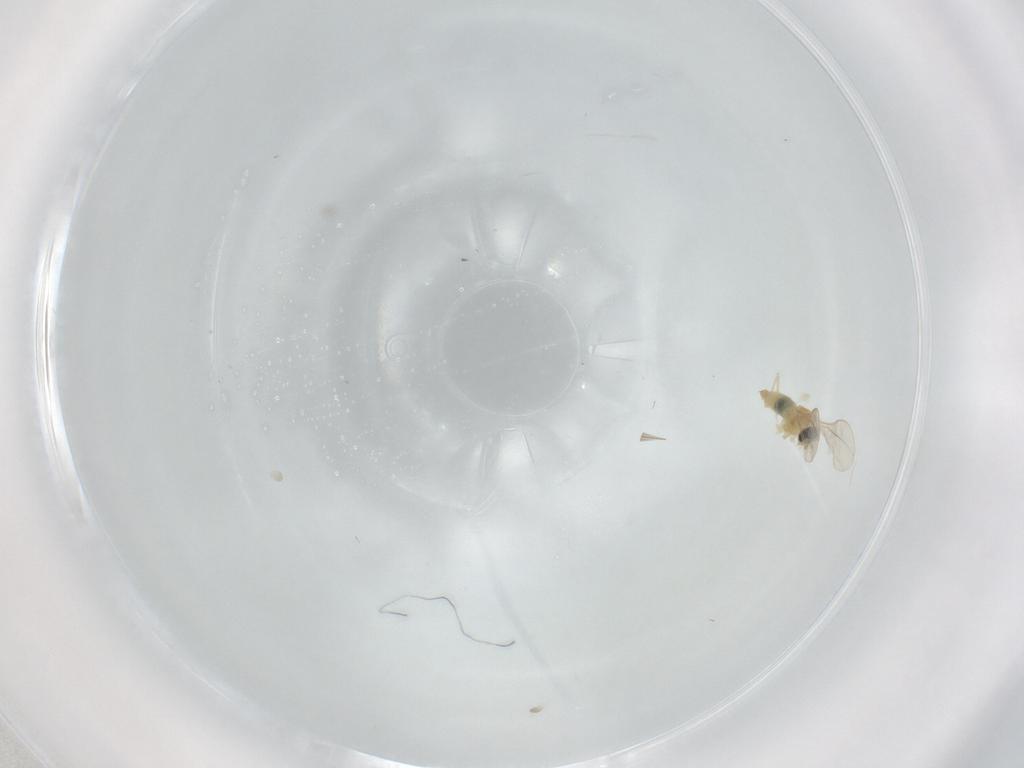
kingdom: Animalia
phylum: Arthropoda
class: Insecta
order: Diptera
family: Cecidomyiidae
